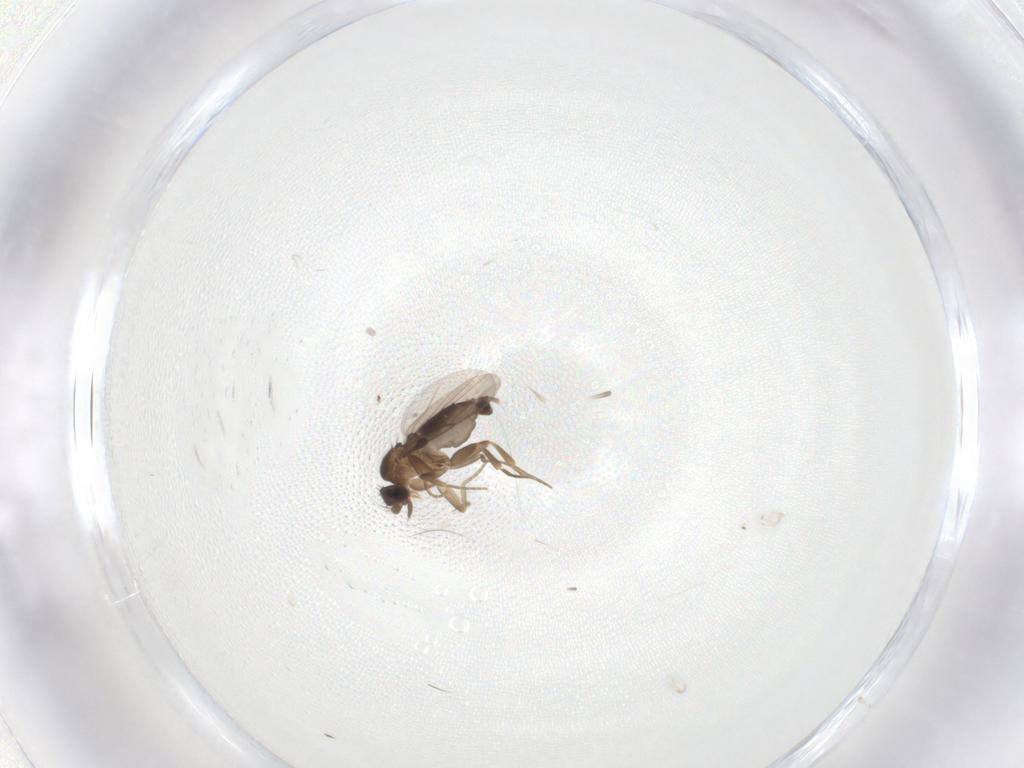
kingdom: Animalia
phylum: Arthropoda
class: Insecta
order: Diptera
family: Phoridae
